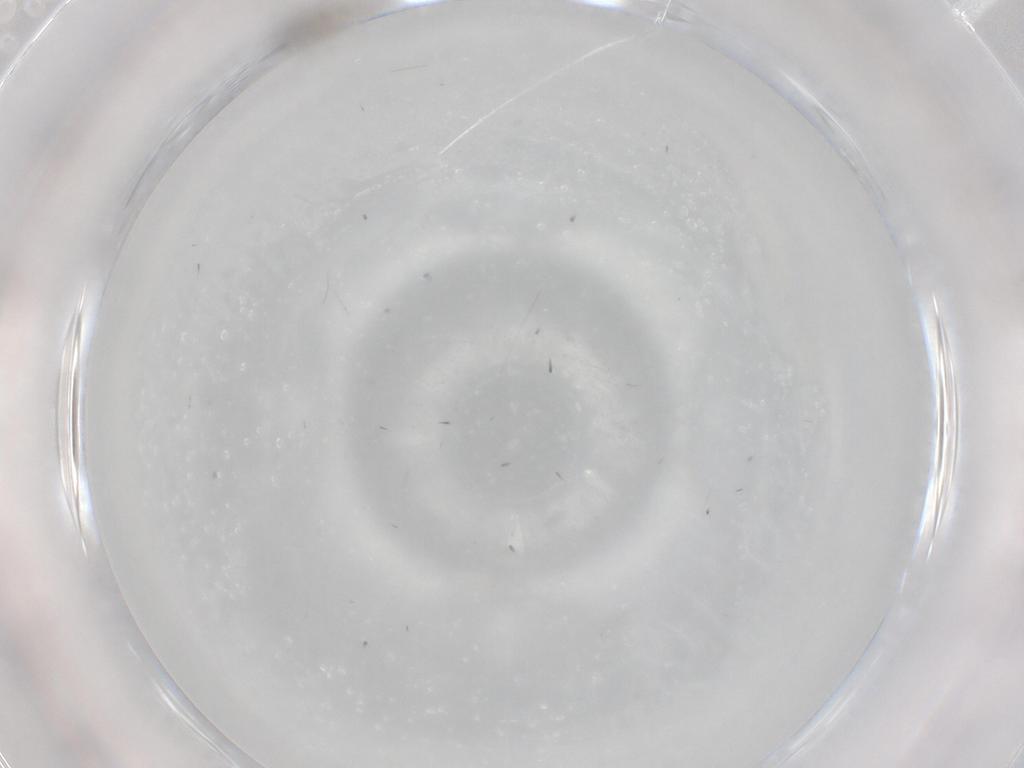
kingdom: Animalia
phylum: Arthropoda
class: Insecta
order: Diptera
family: Cecidomyiidae
